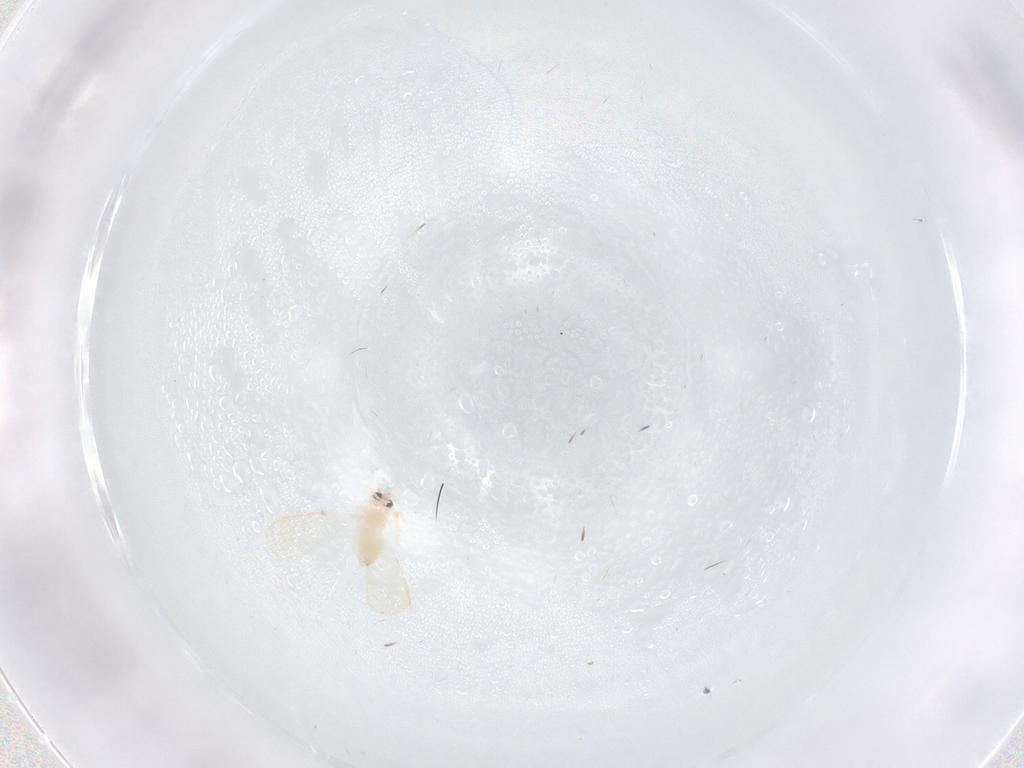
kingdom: Animalia
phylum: Arthropoda
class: Insecta
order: Hemiptera
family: Aleyrodidae
